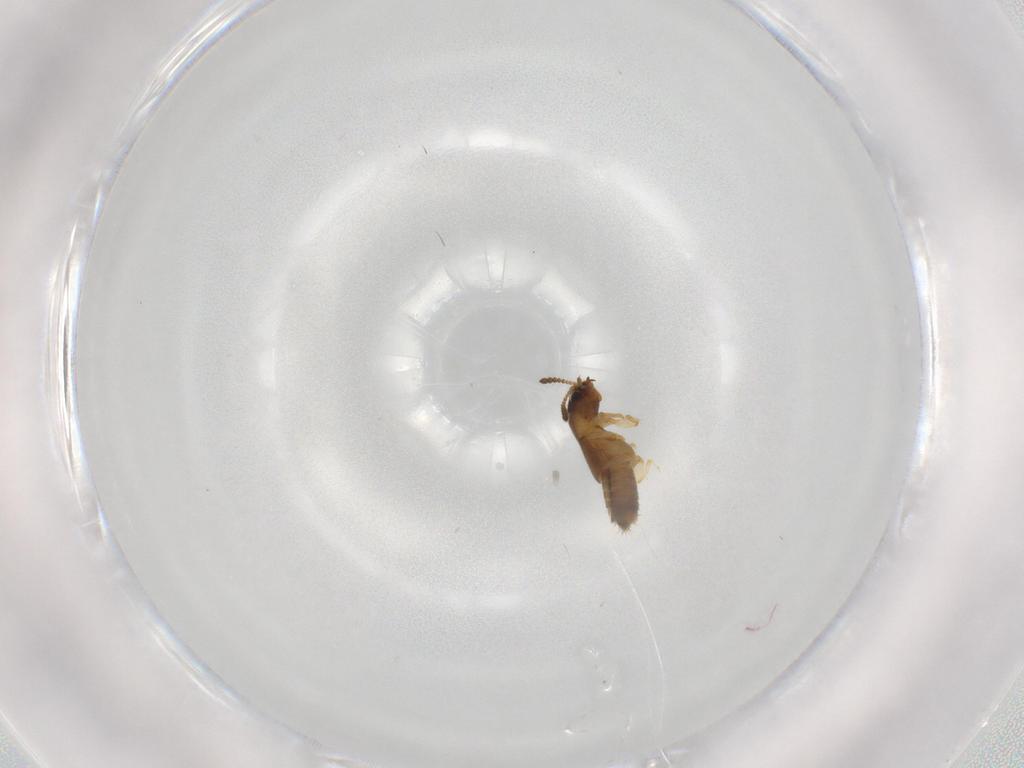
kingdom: Animalia
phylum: Arthropoda
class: Insecta
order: Coleoptera
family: Staphylinidae
